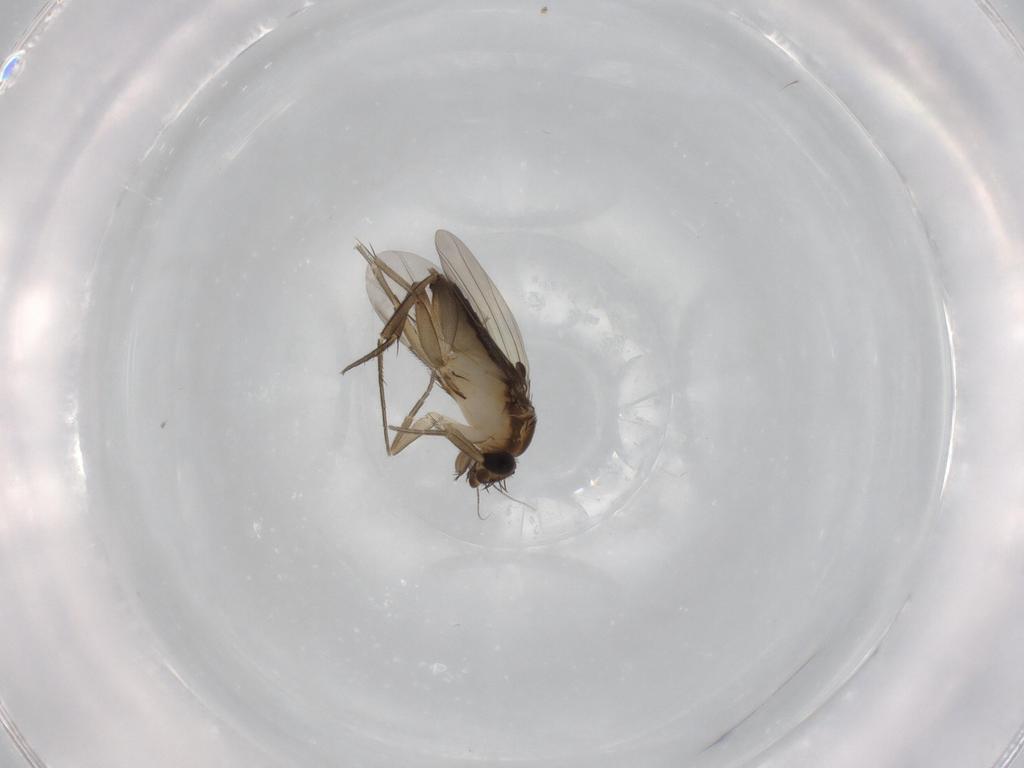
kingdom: Animalia
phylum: Arthropoda
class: Insecta
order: Diptera
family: Phoridae
